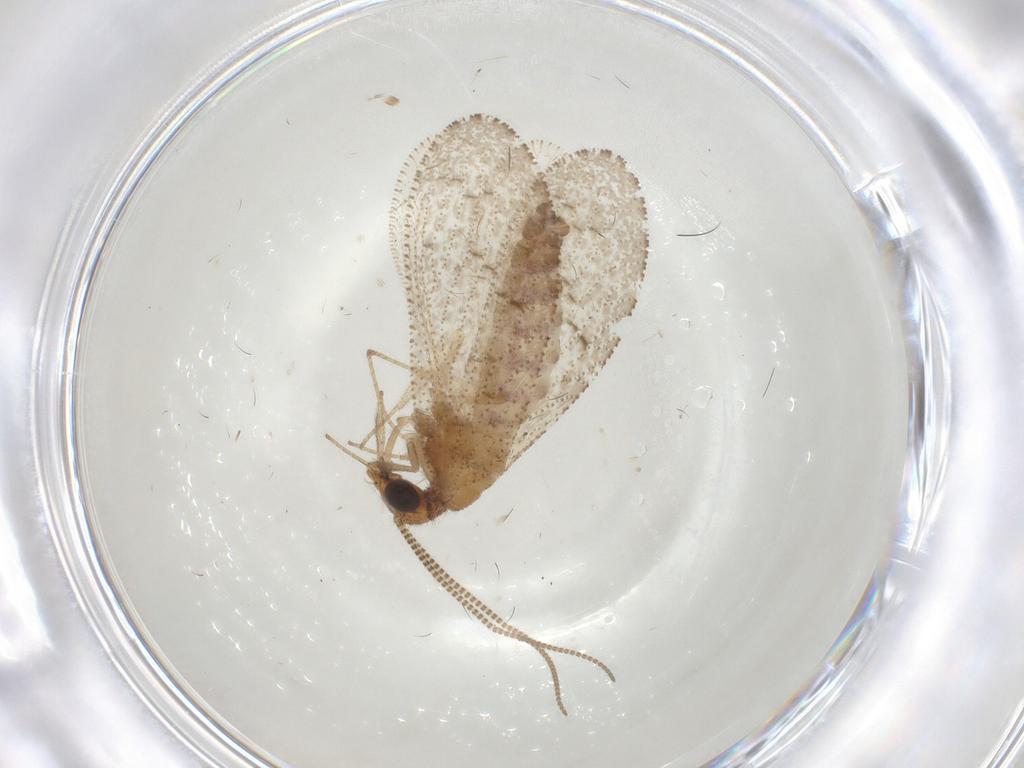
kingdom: Animalia
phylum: Arthropoda
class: Insecta
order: Neuroptera
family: Hemerobiidae
